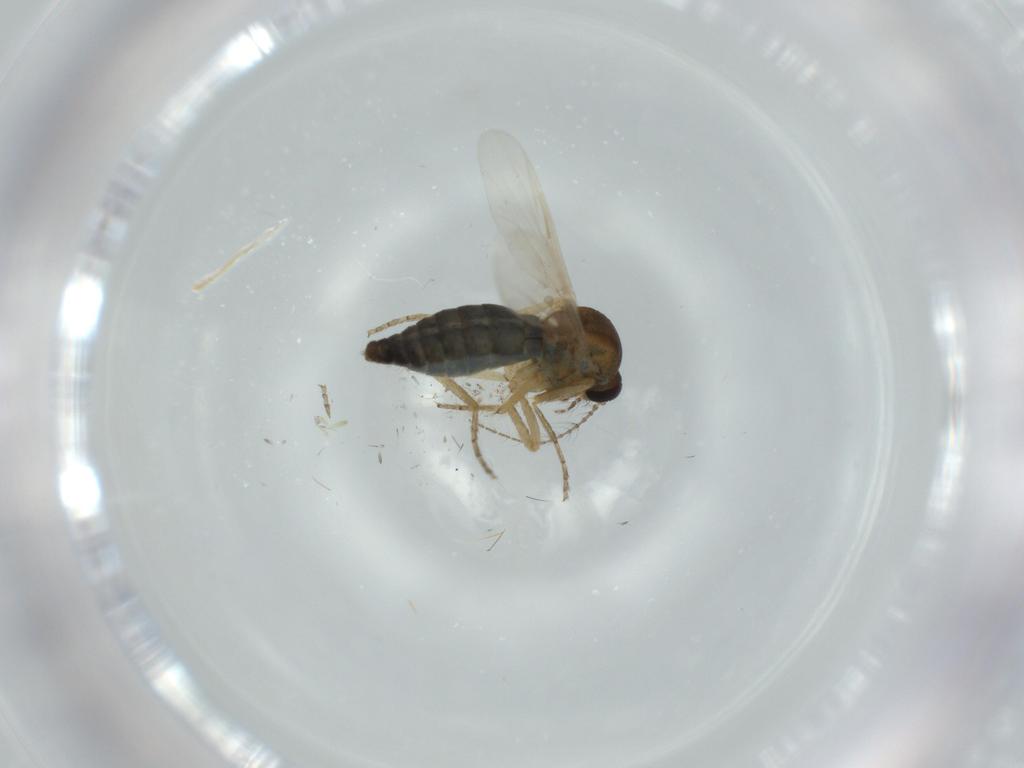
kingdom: Animalia
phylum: Arthropoda
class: Insecta
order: Diptera
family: Ceratopogonidae
